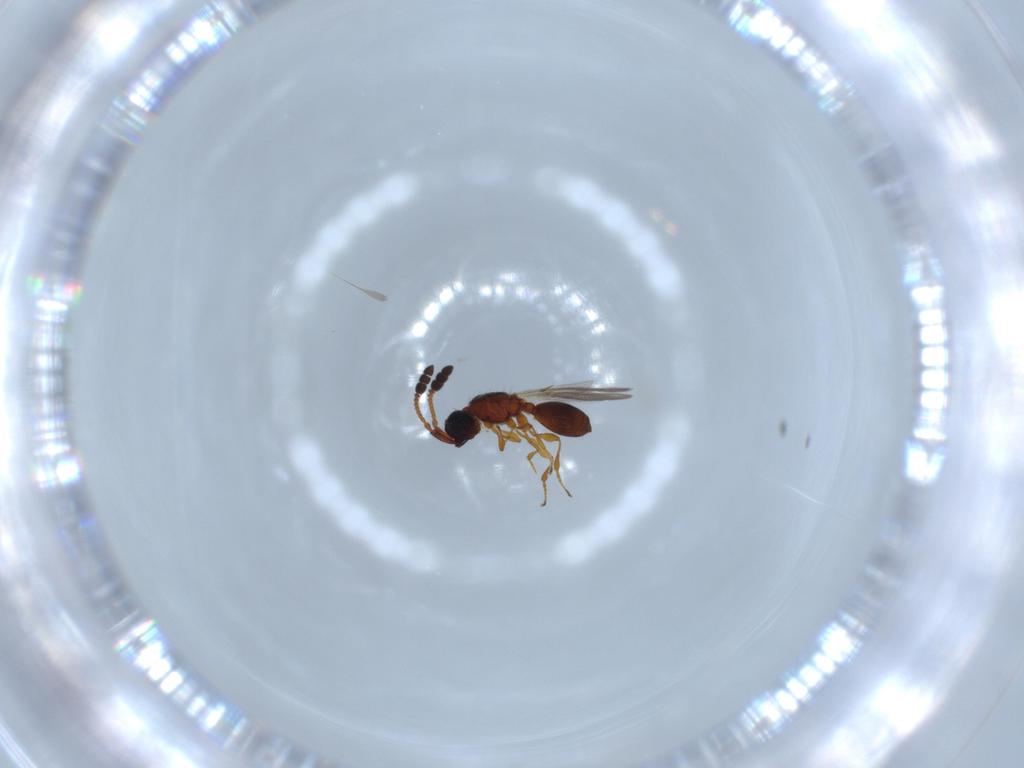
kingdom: Animalia
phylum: Arthropoda
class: Insecta
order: Hymenoptera
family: Diapriidae
